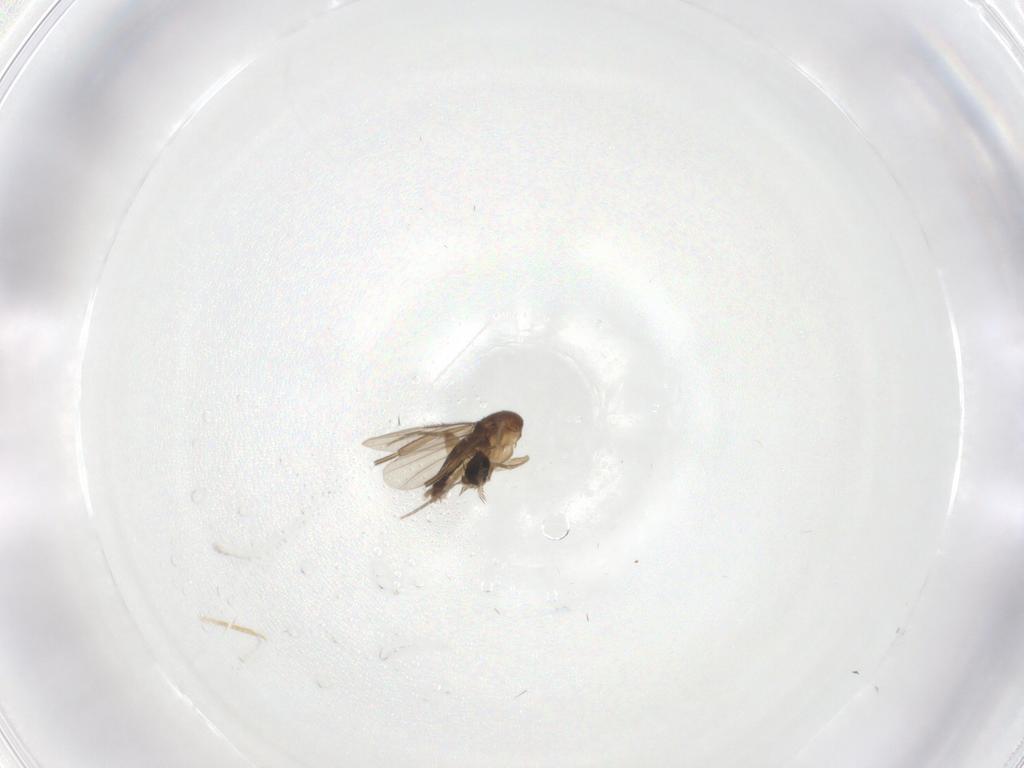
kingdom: Animalia
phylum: Arthropoda
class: Insecta
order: Diptera
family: Phoridae
